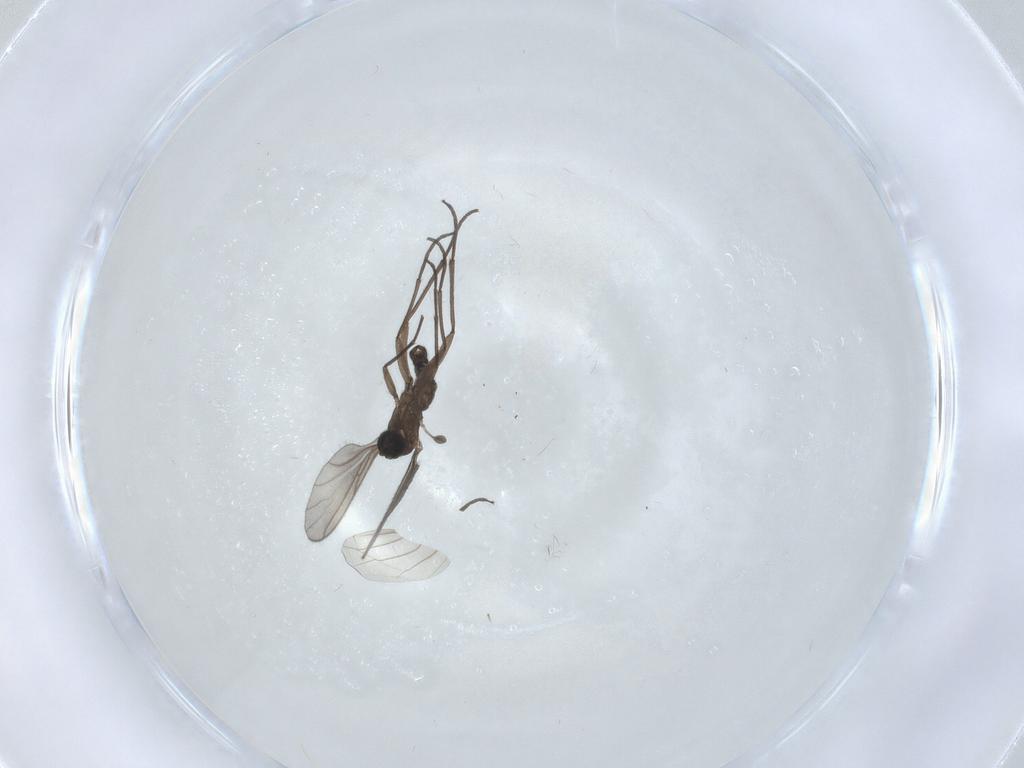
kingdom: Animalia
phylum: Arthropoda
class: Insecta
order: Diptera
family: Sciaridae
